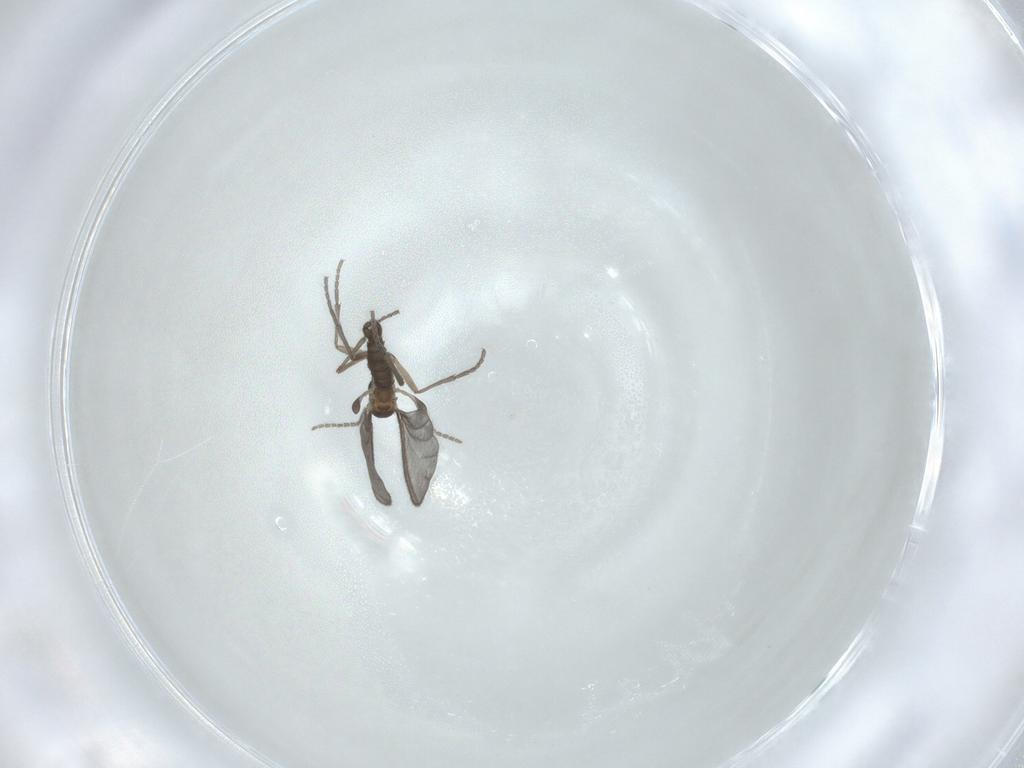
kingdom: Animalia
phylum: Arthropoda
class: Insecta
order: Diptera
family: Sciaridae
